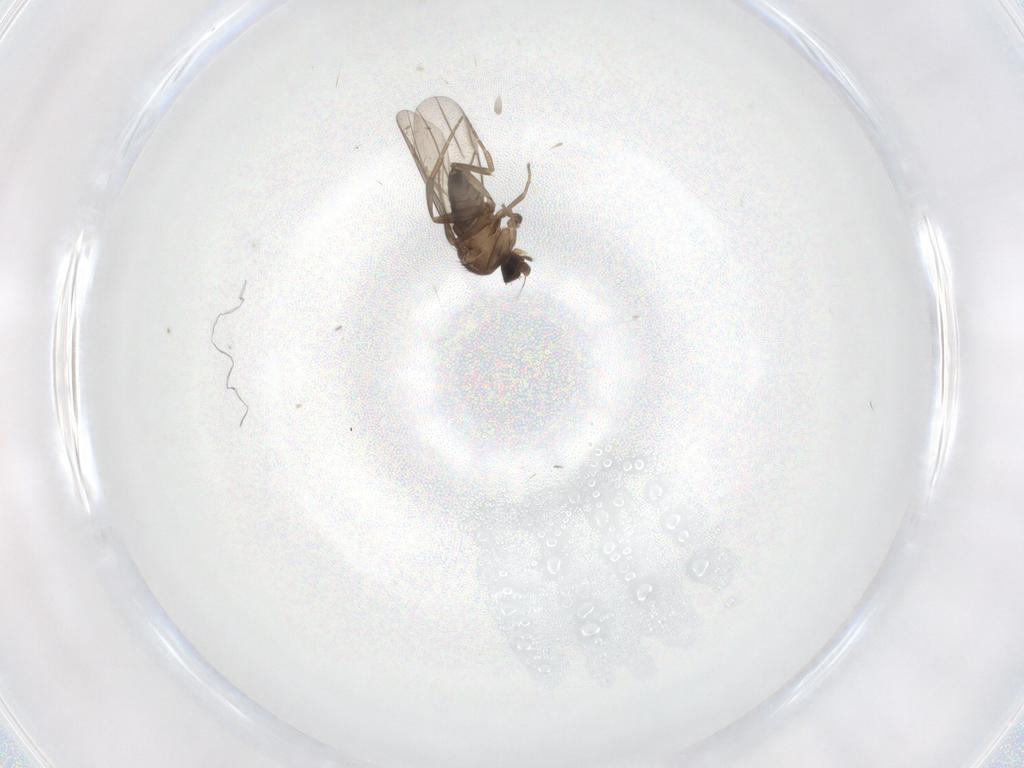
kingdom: Animalia
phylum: Arthropoda
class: Insecta
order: Diptera
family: Phoridae
